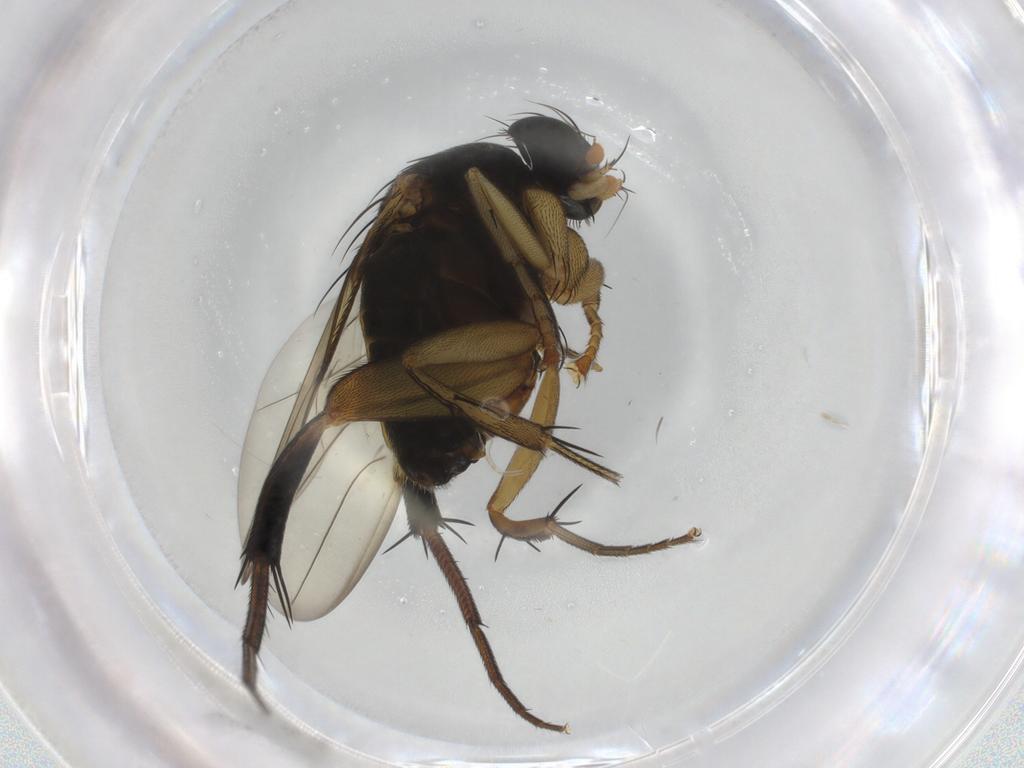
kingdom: Animalia
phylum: Arthropoda
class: Insecta
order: Diptera
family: Phoridae
